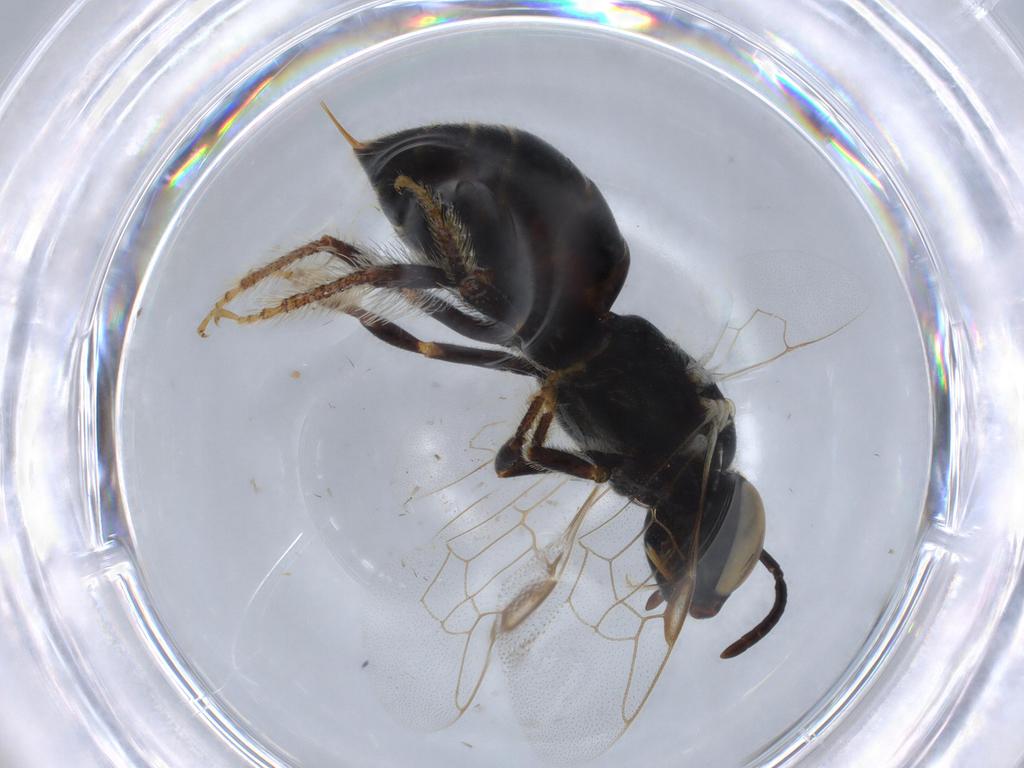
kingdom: Animalia
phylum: Arthropoda
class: Insecta
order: Hymenoptera
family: Apidae
